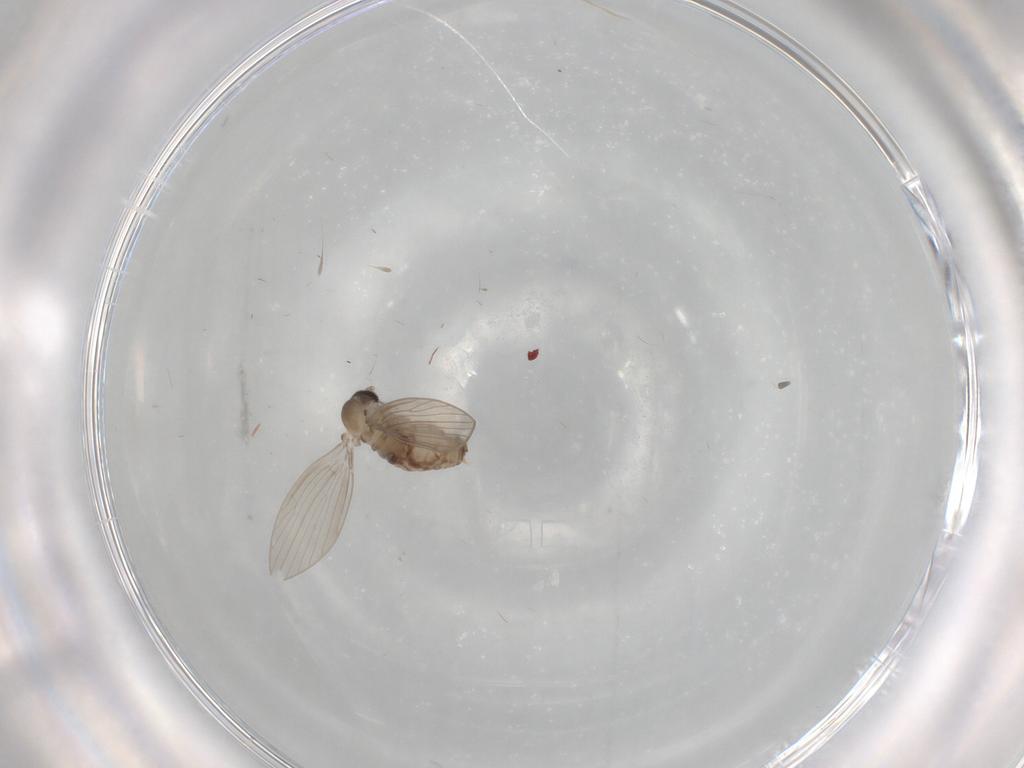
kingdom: Animalia
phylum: Arthropoda
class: Insecta
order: Diptera
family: Psychodidae
